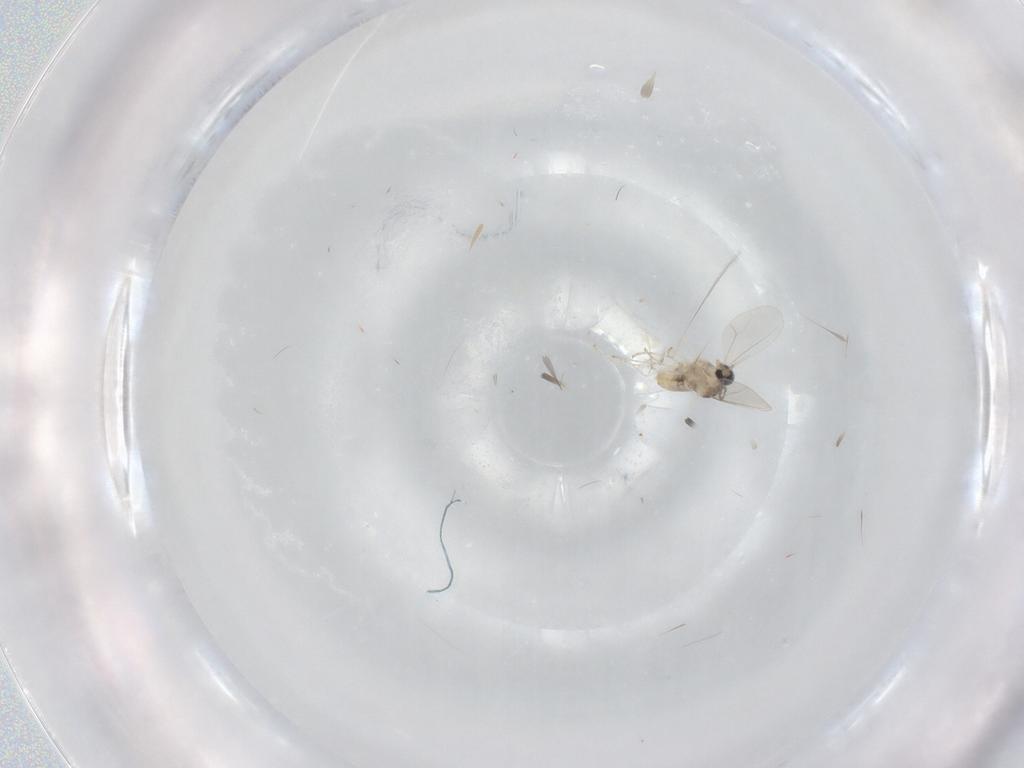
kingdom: Animalia
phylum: Arthropoda
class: Insecta
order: Diptera
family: Cecidomyiidae
